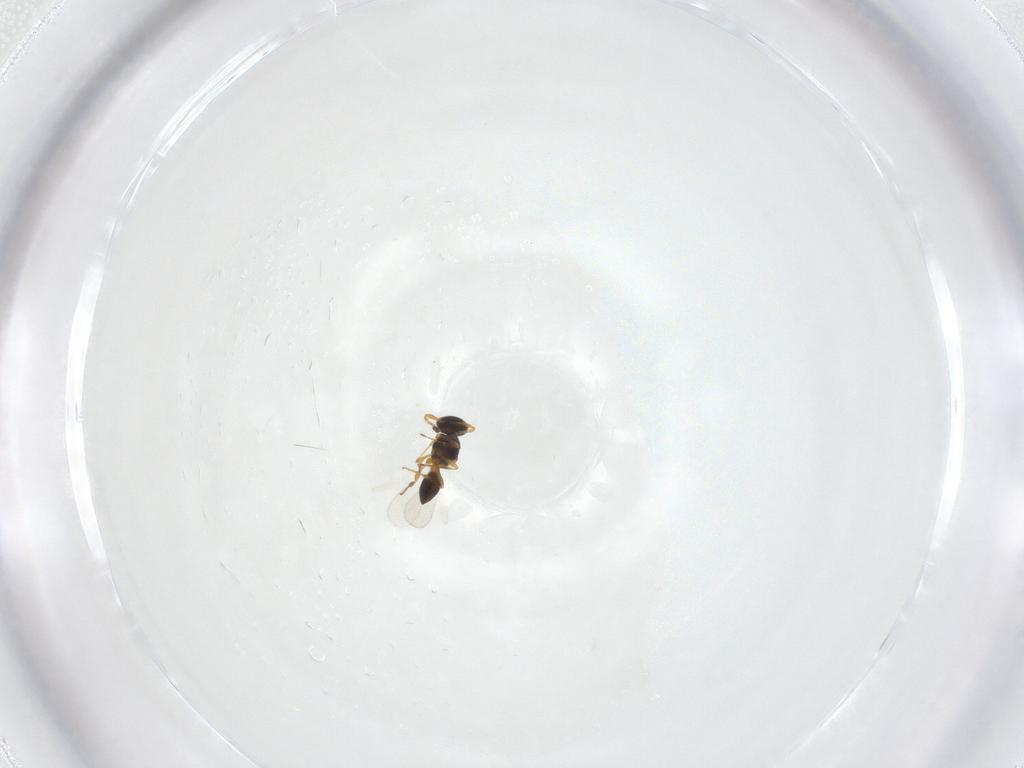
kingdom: Animalia
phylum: Arthropoda
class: Insecta
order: Hymenoptera
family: Platygastridae
